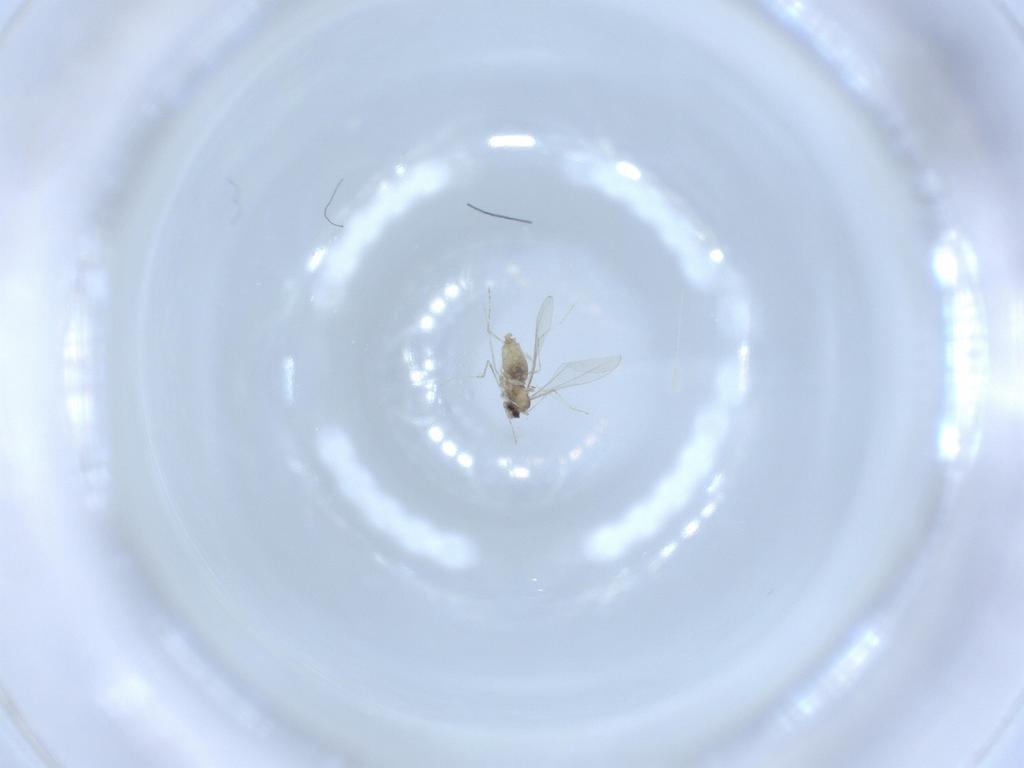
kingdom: Animalia
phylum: Arthropoda
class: Insecta
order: Diptera
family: Cecidomyiidae
